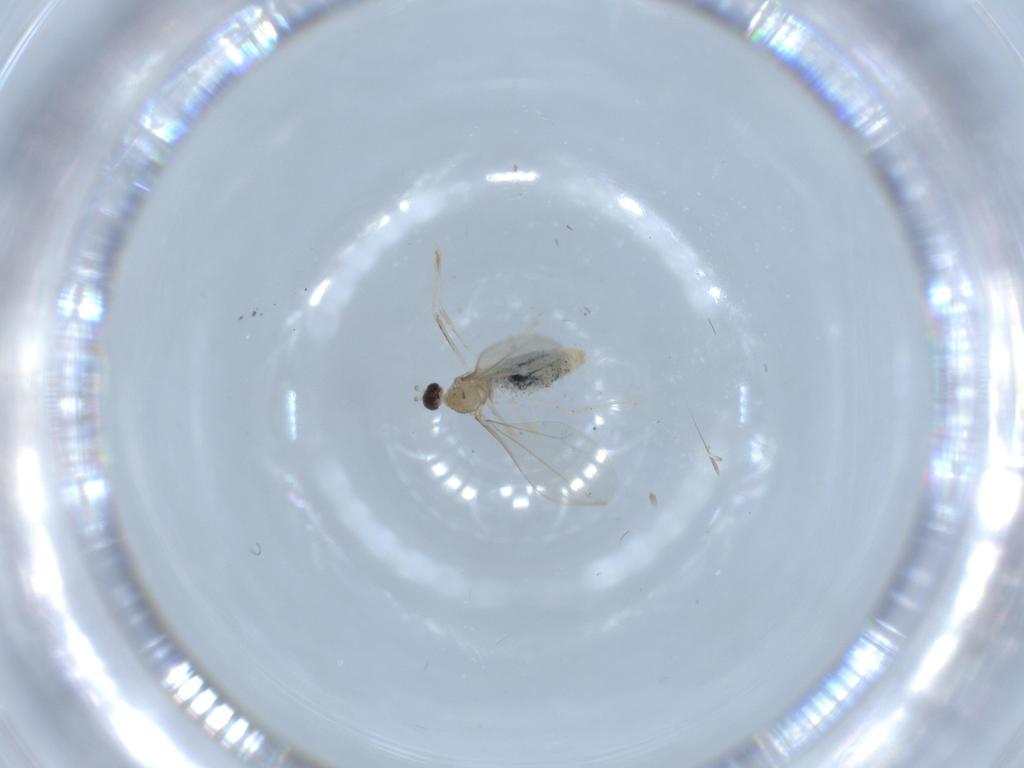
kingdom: Animalia
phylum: Arthropoda
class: Insecta
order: Diptera
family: Cecidomyiidae
